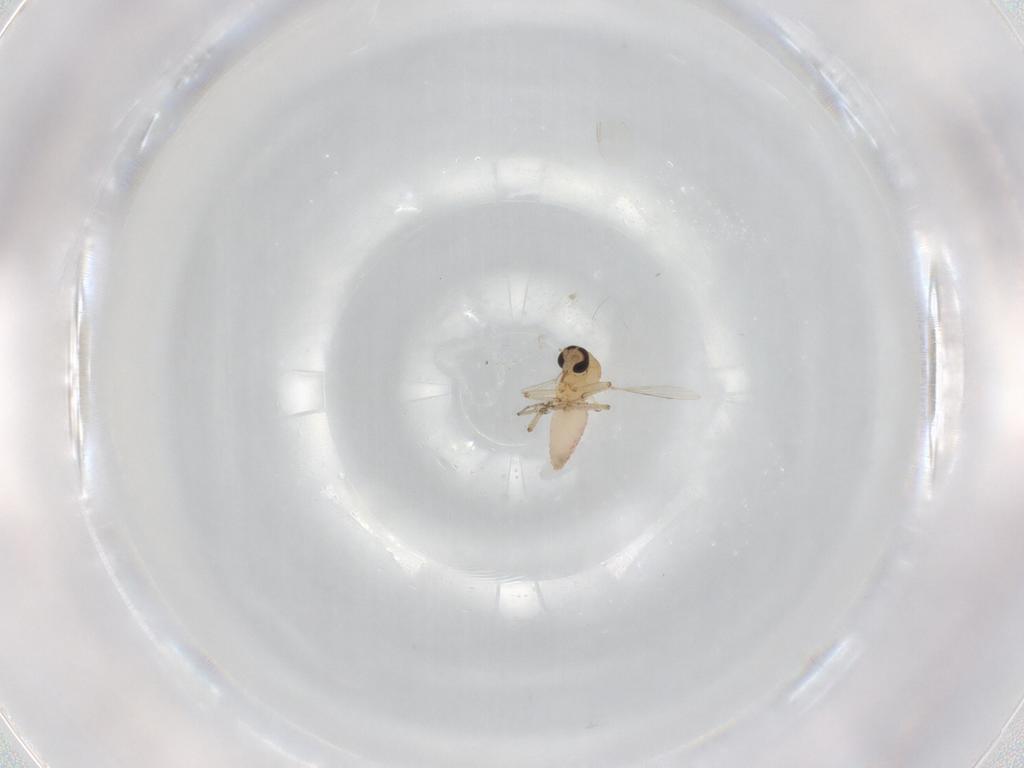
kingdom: Animalia
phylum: Arthropoda
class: Insecta
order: Diptera
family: Ceratopogonidae
